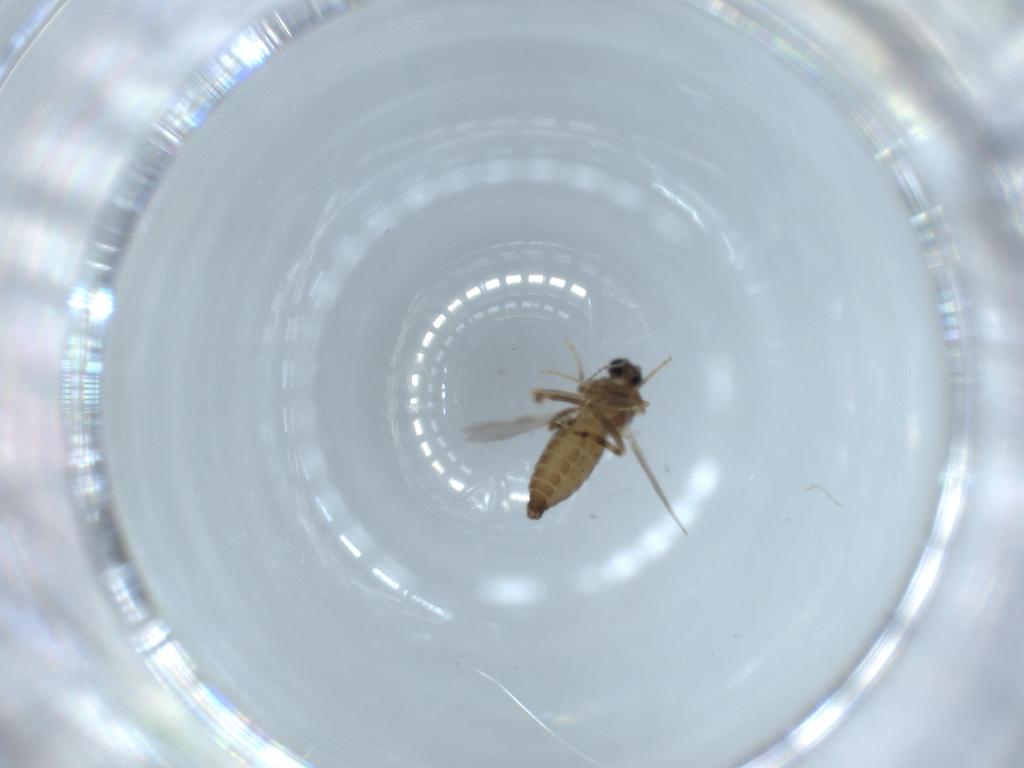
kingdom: Animalia
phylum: Arthropoda
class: Insecta
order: Diptera
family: Ceratopogonidae
